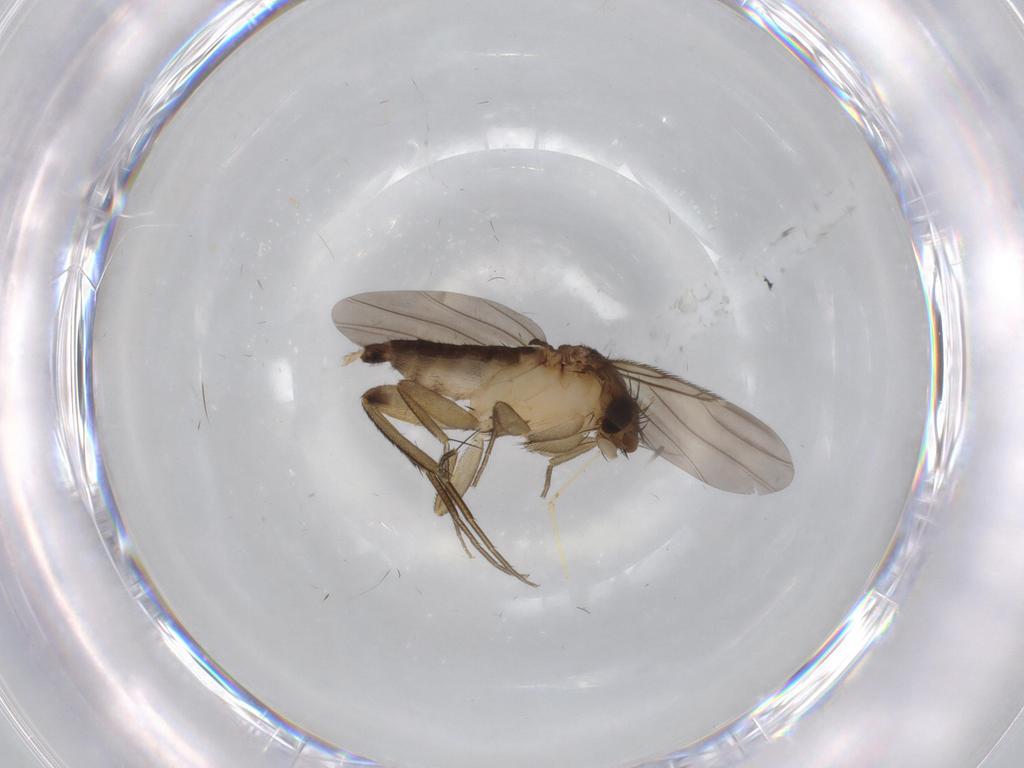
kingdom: Animalia
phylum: Arthropoda
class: Insecta
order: Diptera
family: Phoridae
